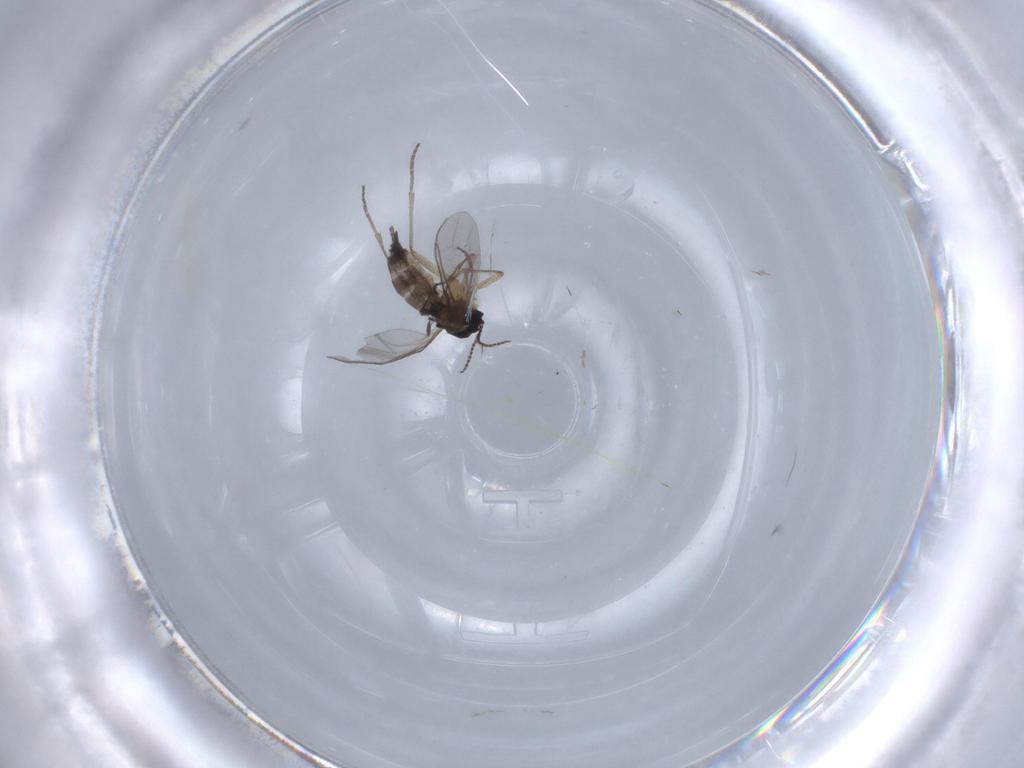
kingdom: Animalia
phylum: Arthropoda
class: Insecta
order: Diptera
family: Sciaridae
